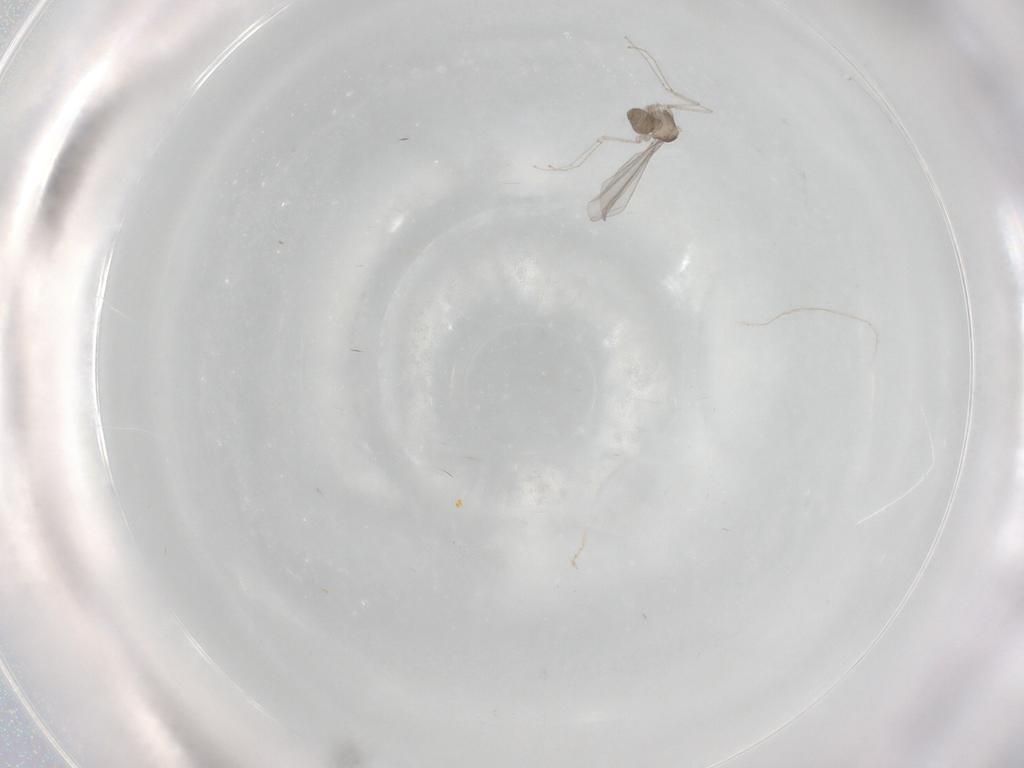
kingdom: Animalia
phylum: Arthropoda
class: Insecta
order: Diptera
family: Cecidomyiidae
